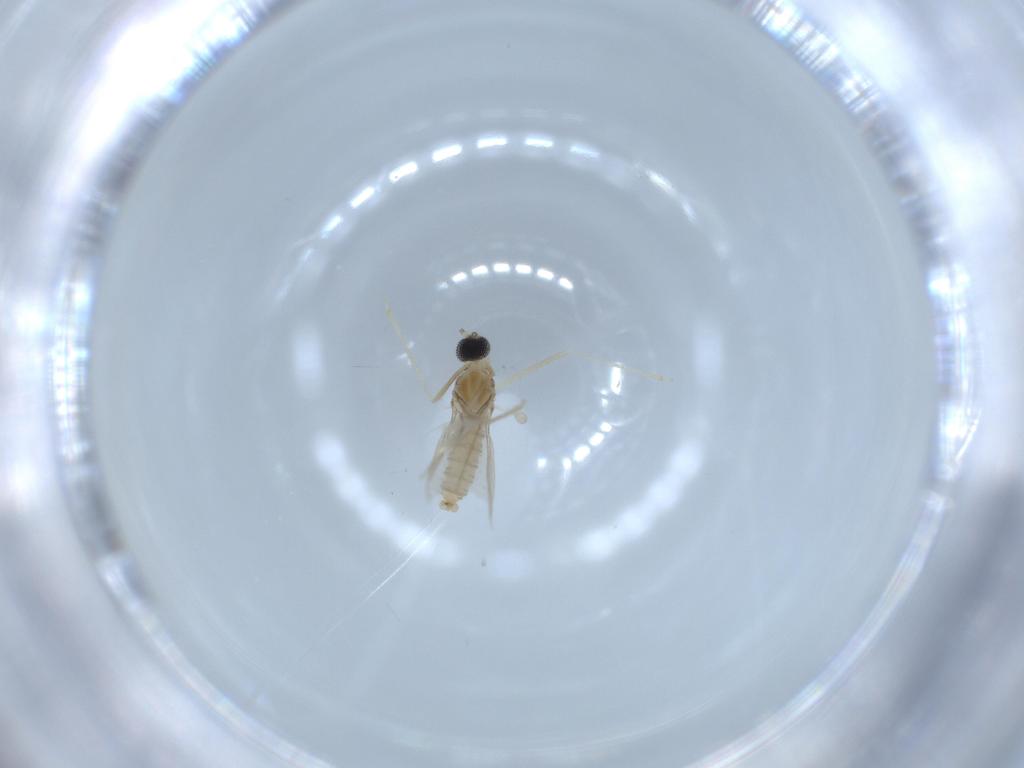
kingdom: Animalia
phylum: Arthropoda
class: Insecta
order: Diptera
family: Cecidomyiidae
